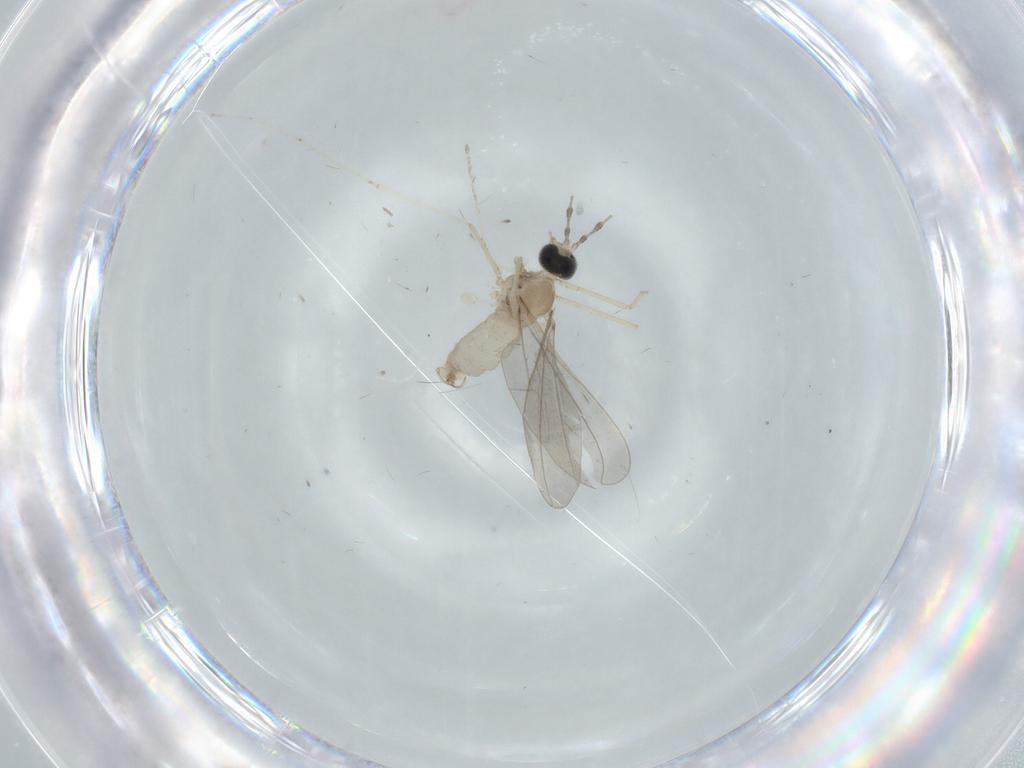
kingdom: Animalia
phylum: Arthropoda
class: Insecta
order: Diptera
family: Cecidomyiidae
